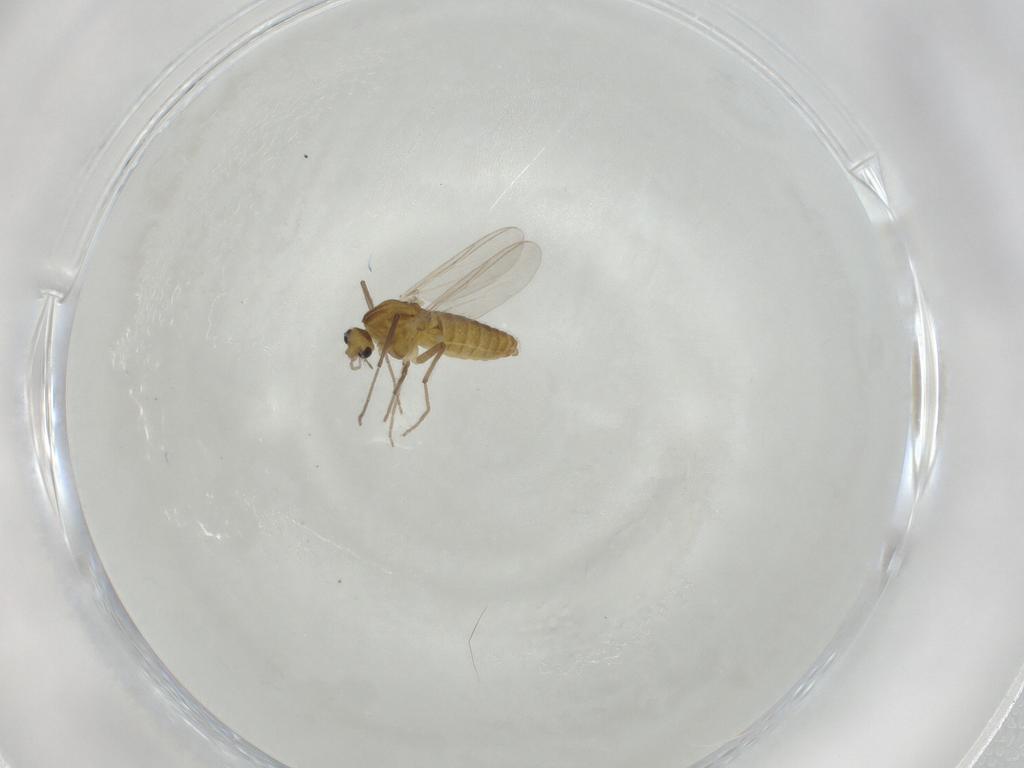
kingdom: Animalia
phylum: Arthropoda
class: Insecta
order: Diptera
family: Chironomidae
